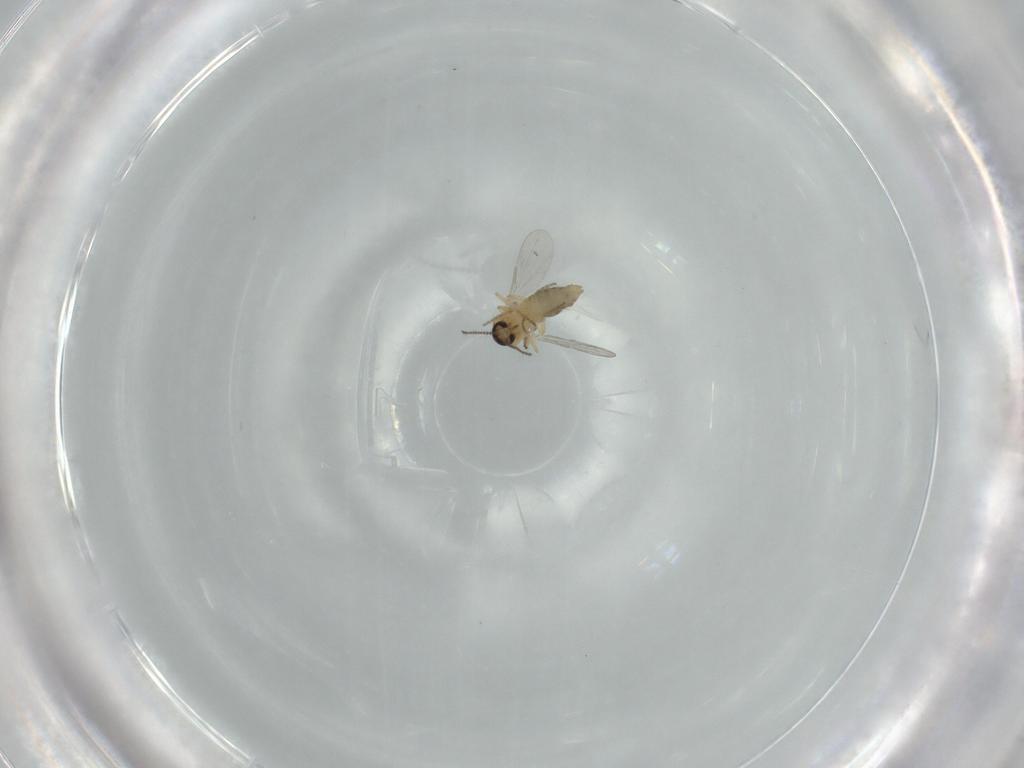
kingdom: Animalia
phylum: Arthropoda
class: Insecta
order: Diptera
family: Ceratopogonidae
